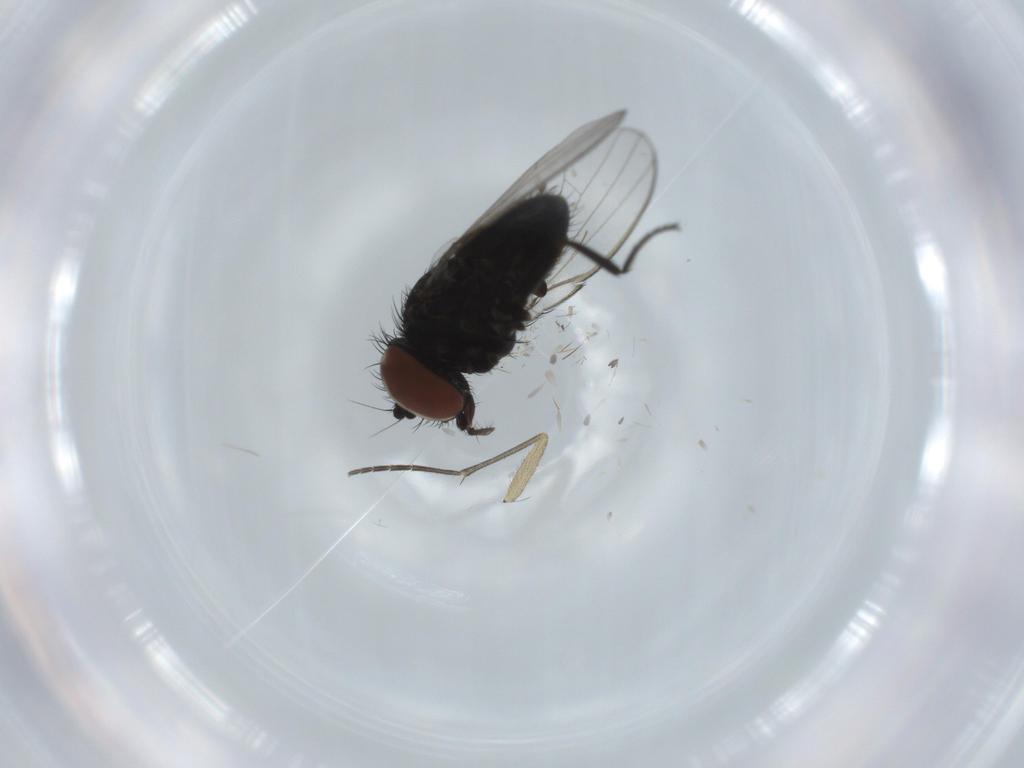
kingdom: Animalia
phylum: Arthropoda
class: Insecta
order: Diptera
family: Milichiidae
